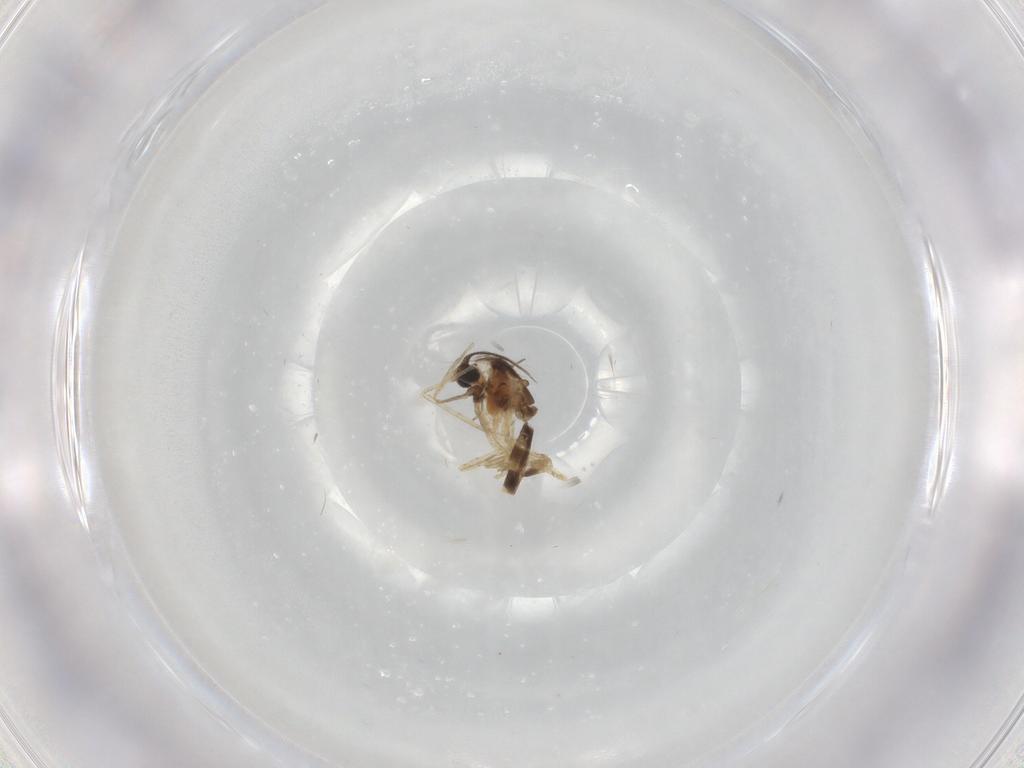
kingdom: Animalia
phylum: Arthropoda
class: Insecta
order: Diptera
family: Chironomidae
